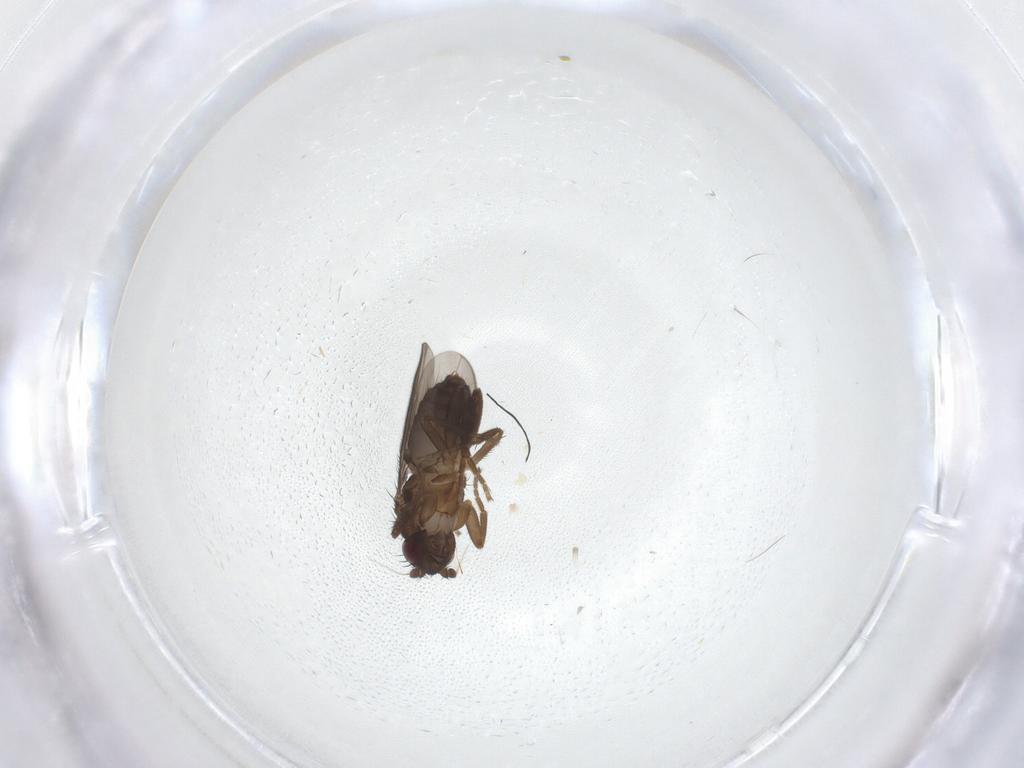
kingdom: Animalia
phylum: Arthropoda
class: Insecta
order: Diptera
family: Sphaeroceridae
